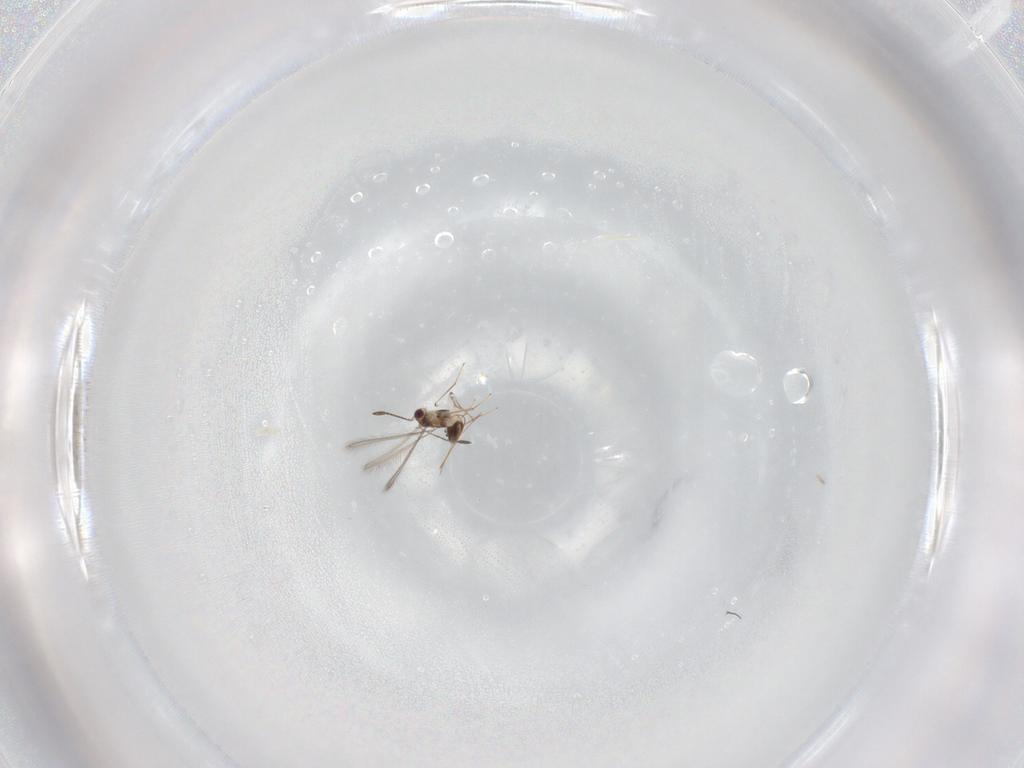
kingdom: Animalia
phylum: Arthropoda
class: Insecta
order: Hymenoptera
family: Mymaridae
